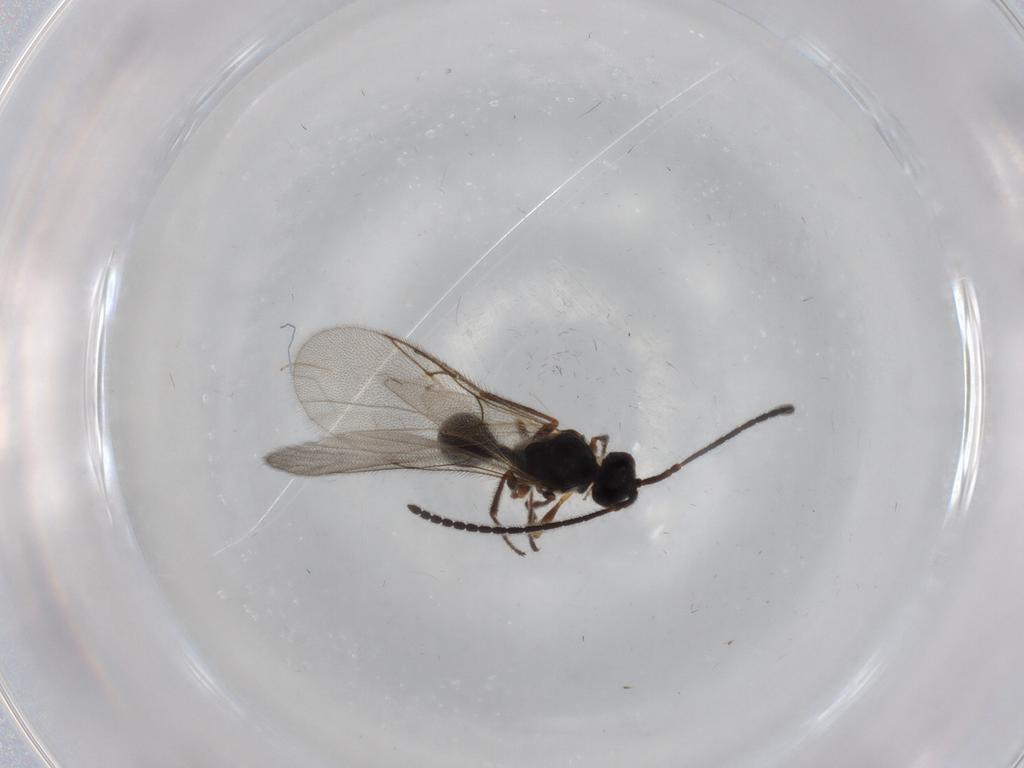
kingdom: Animalia
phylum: Arthropoda
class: Insecta
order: Hymenoptera
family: Diapriidae
